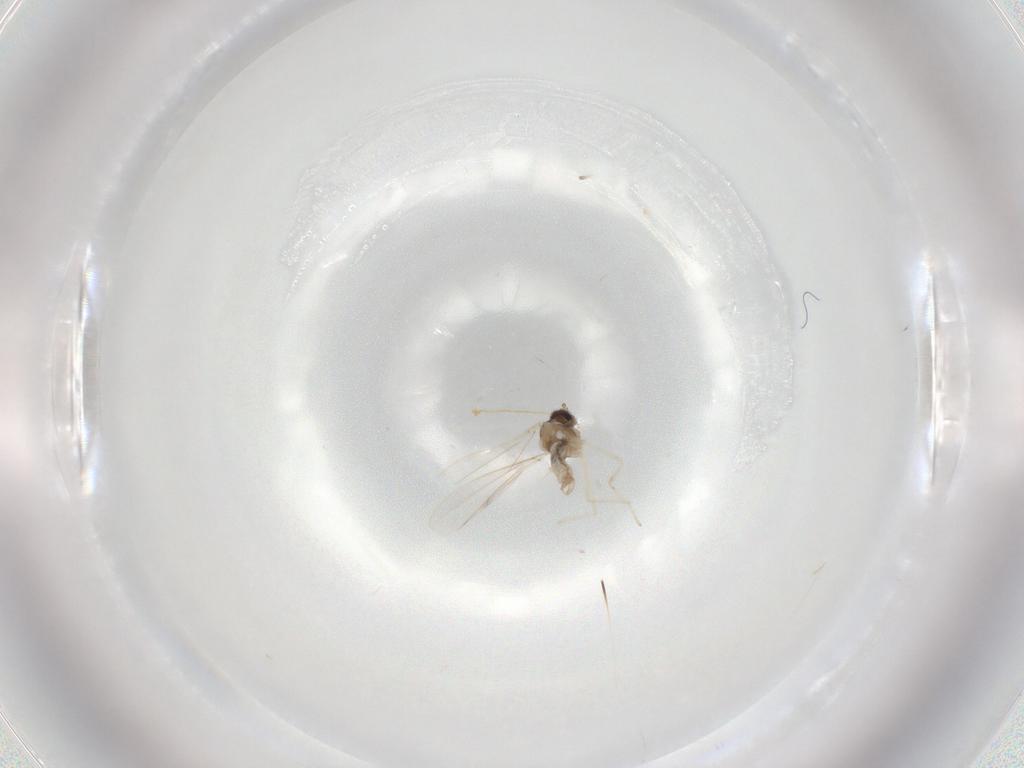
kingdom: Animalia
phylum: Arthropoda
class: Insecta
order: Diptera
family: Cecidomyiidae
